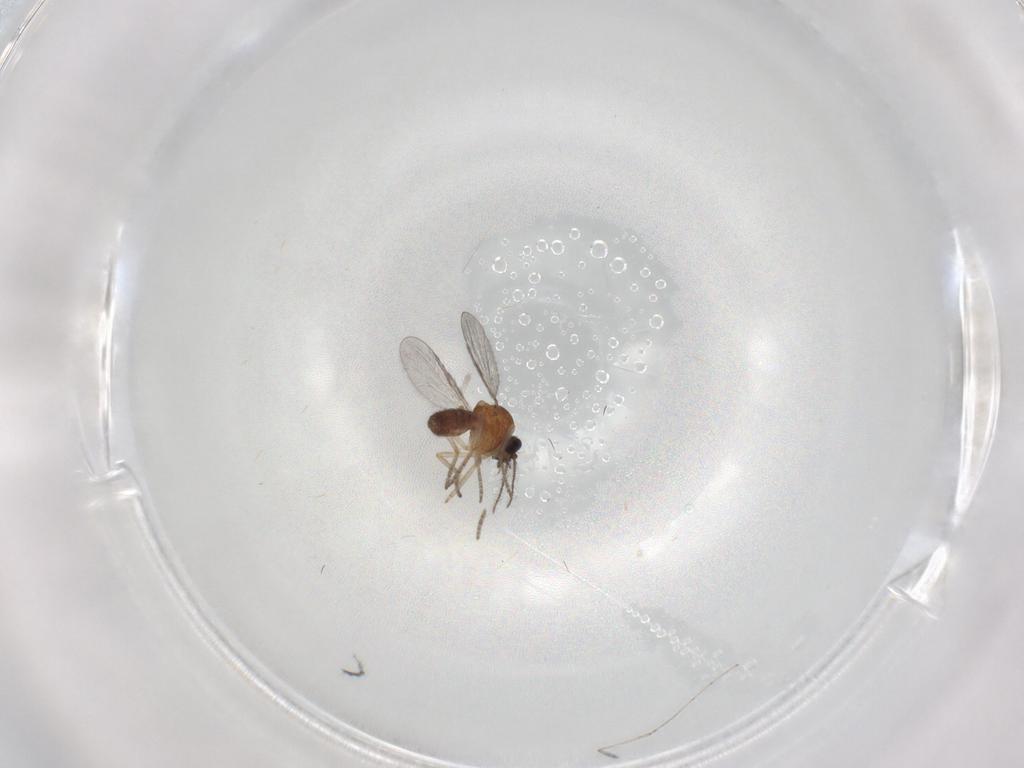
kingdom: Animalia
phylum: Arthropoda
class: Insecta
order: Diptera
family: Ceratopogonidae
